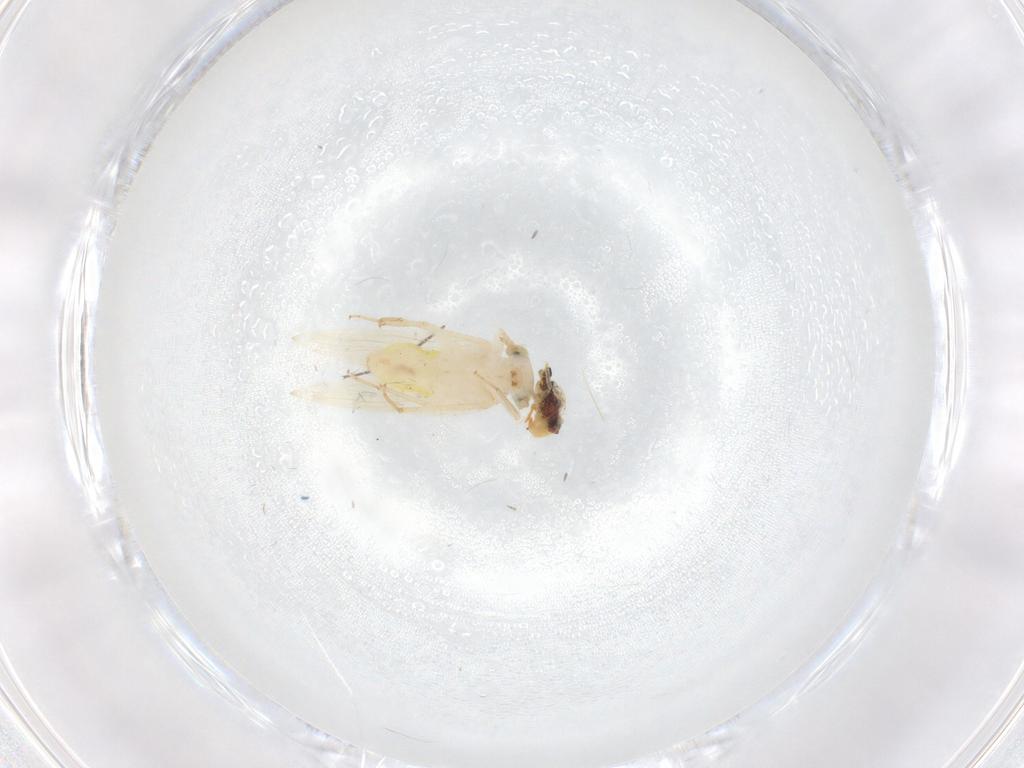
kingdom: Animalia
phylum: Arthropoda
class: Insecta
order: Psocodea
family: Lepidopsocidae
